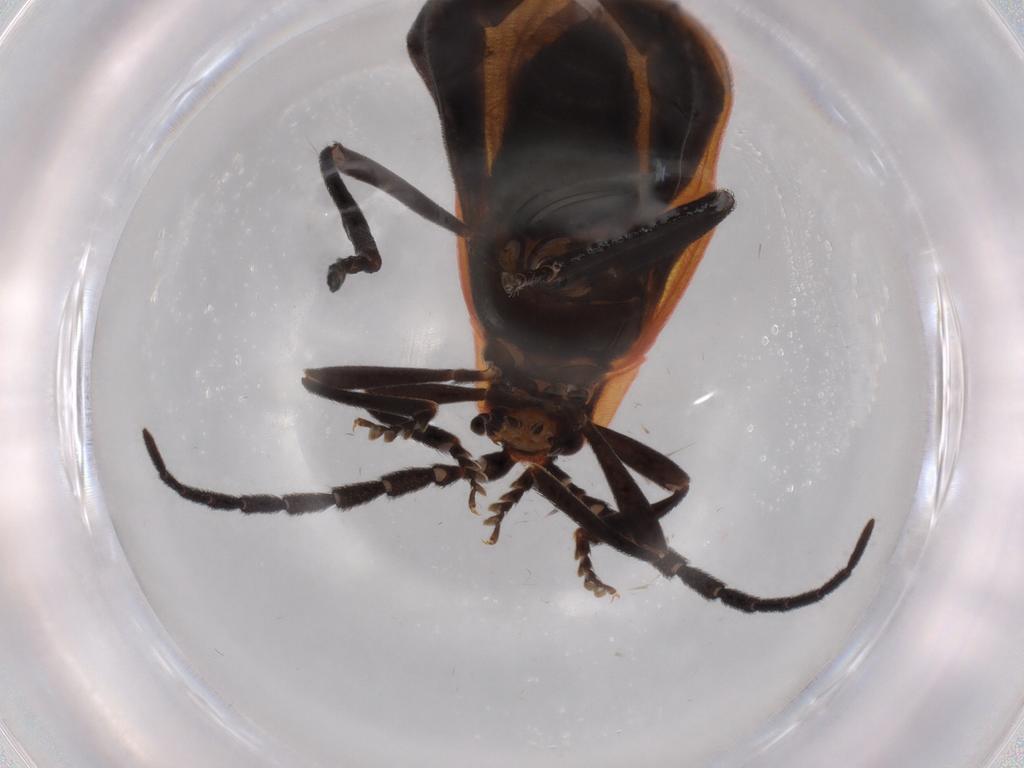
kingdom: Animalia
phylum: Arthropoda
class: Insecta
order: Coleoptera
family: Lycidae
